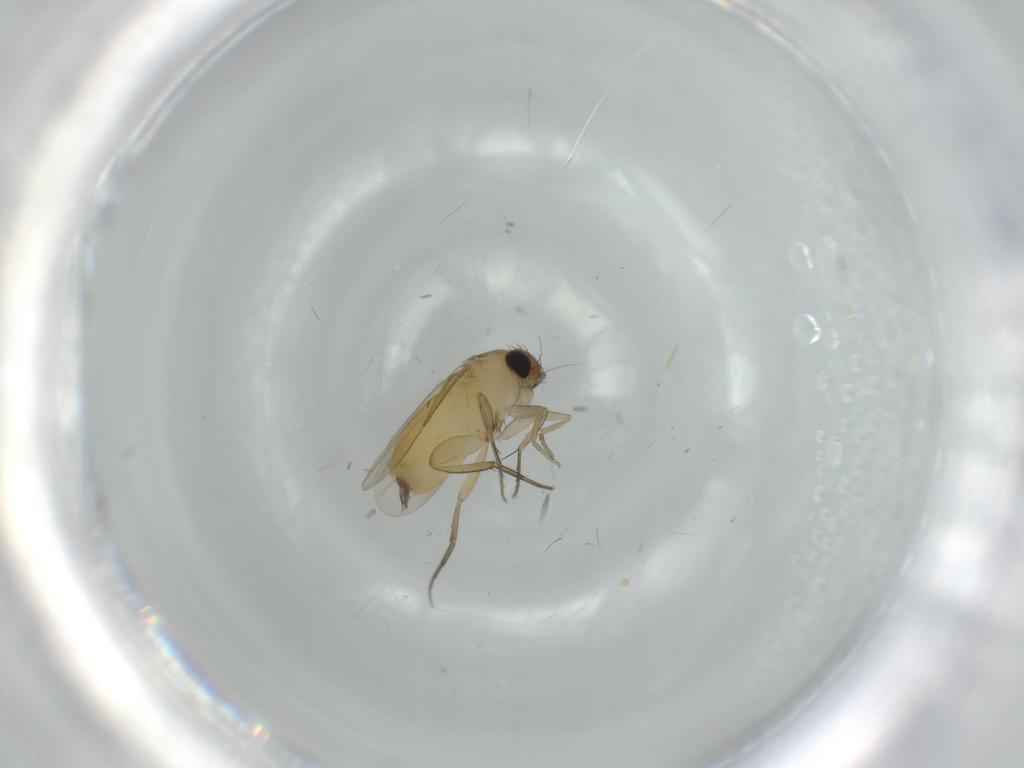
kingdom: Animalia
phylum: Arthropoda
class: Insecta
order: Diptera
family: Phoridae
